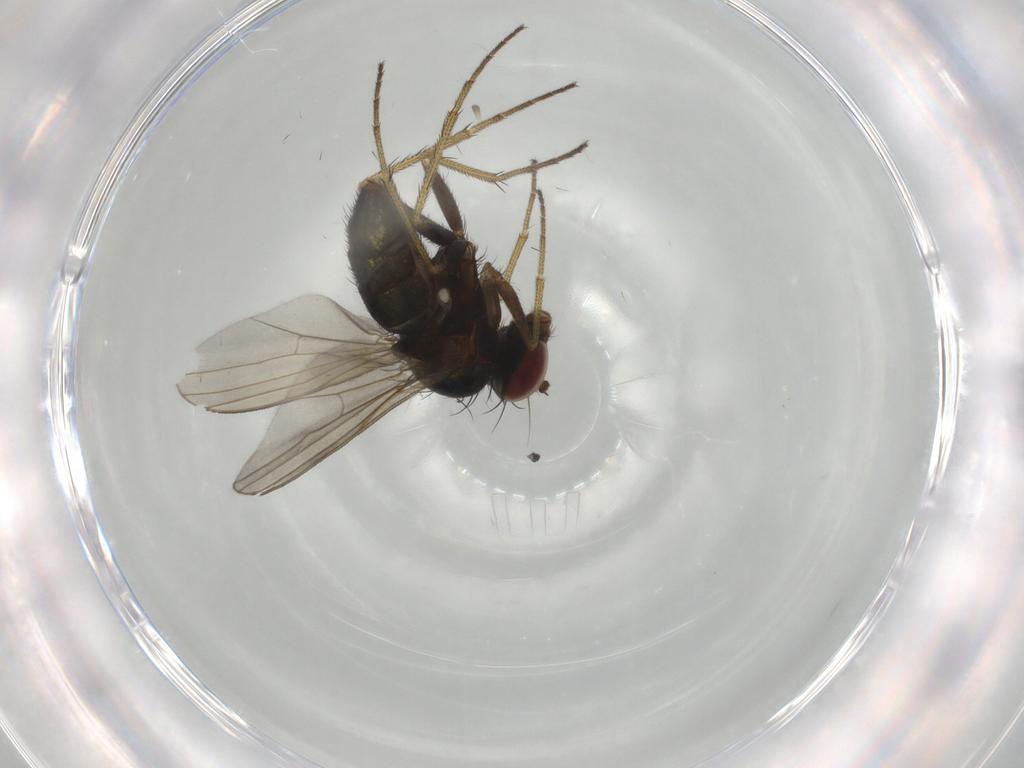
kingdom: Animalia
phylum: Arthropoda
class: Insecta
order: Diptera
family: Dolichopodidae
